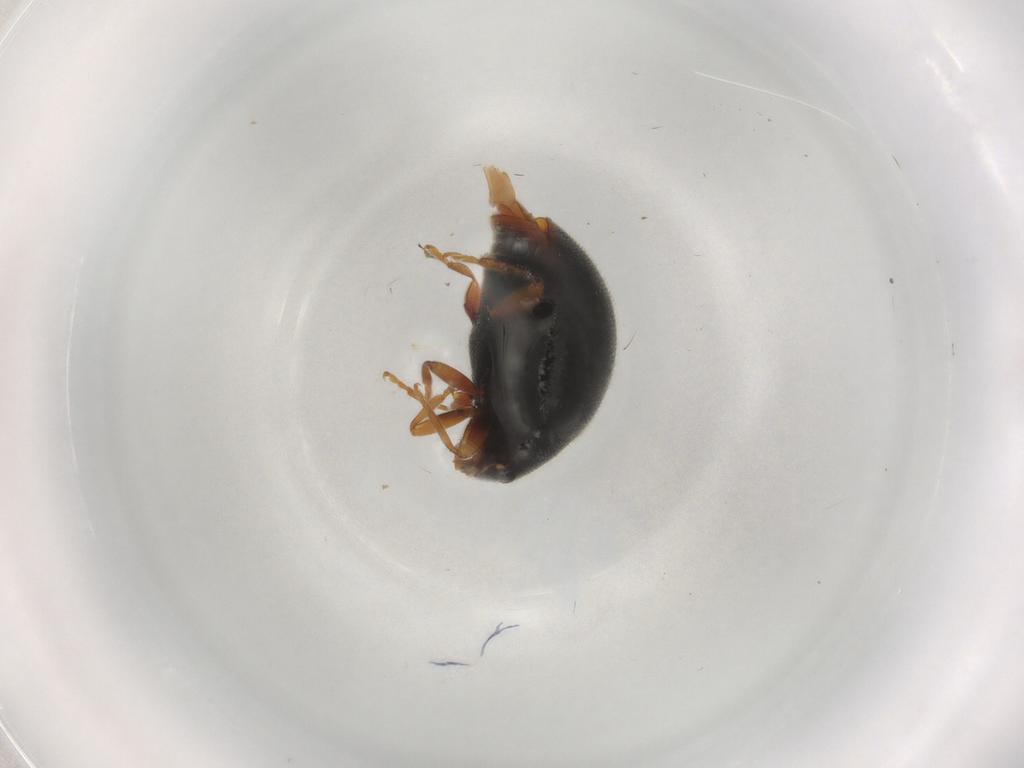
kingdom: Animalia
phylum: Arthropoda
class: Insecta
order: Coleoptera
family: Coccinellidae
